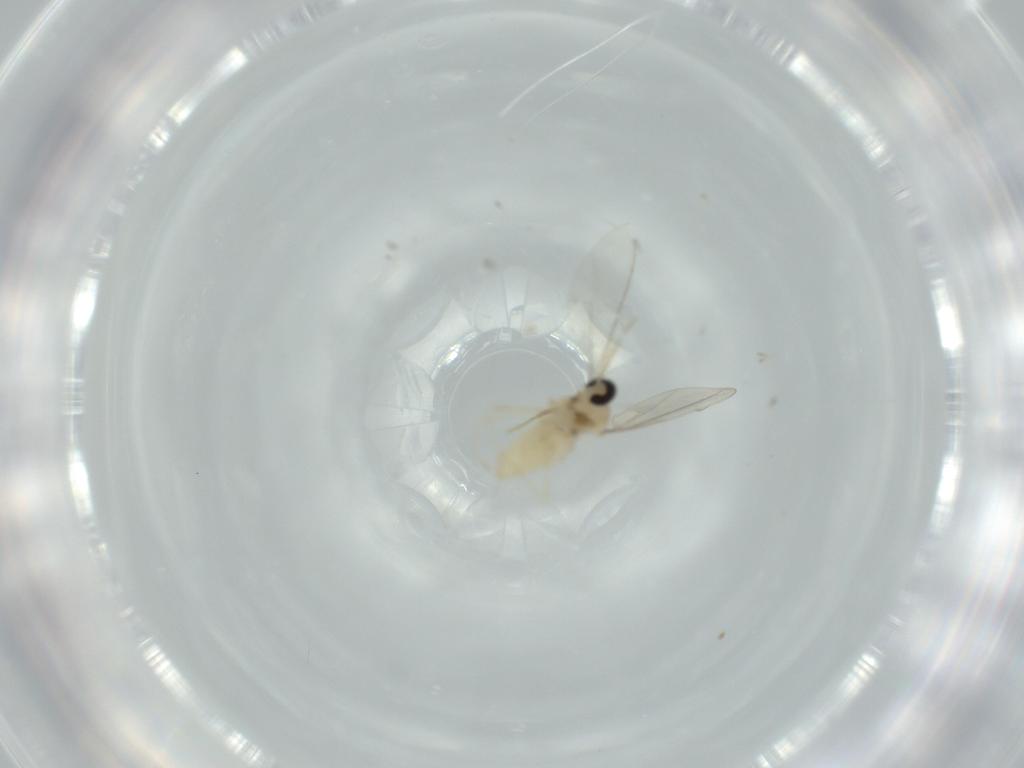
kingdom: Animalia
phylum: Arthropoda
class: Insecta
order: Diptera
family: Cecidomyiidae
